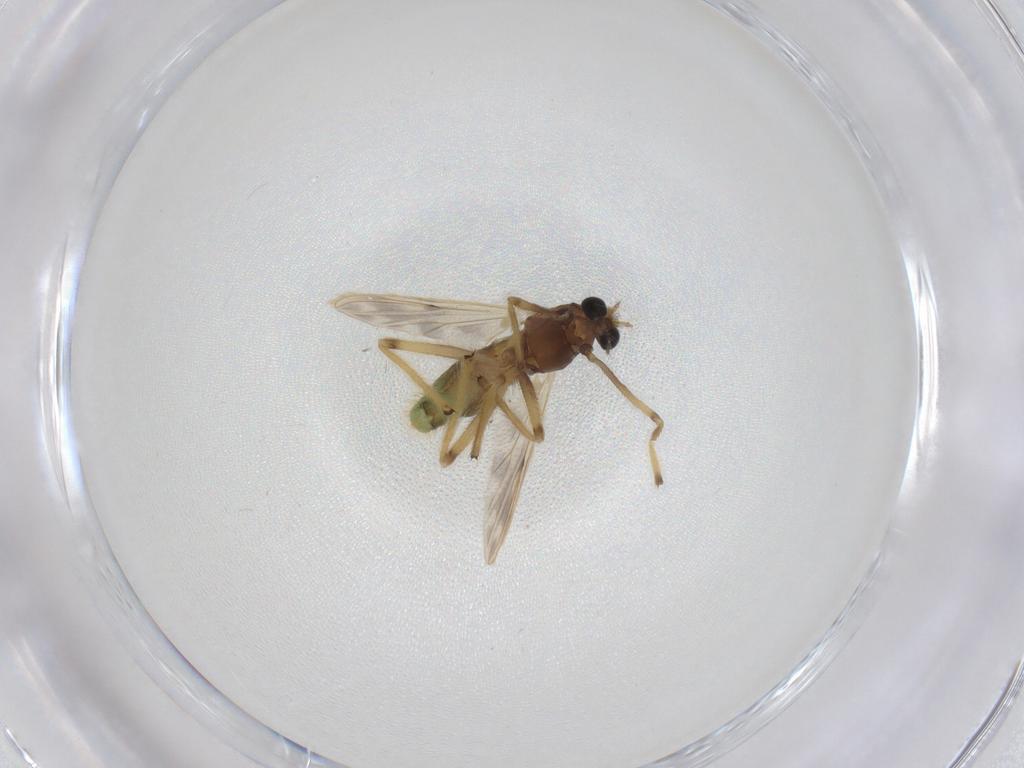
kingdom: Animalia
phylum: Arthropoda
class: Insecta
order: Diptera
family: Chironomidae
